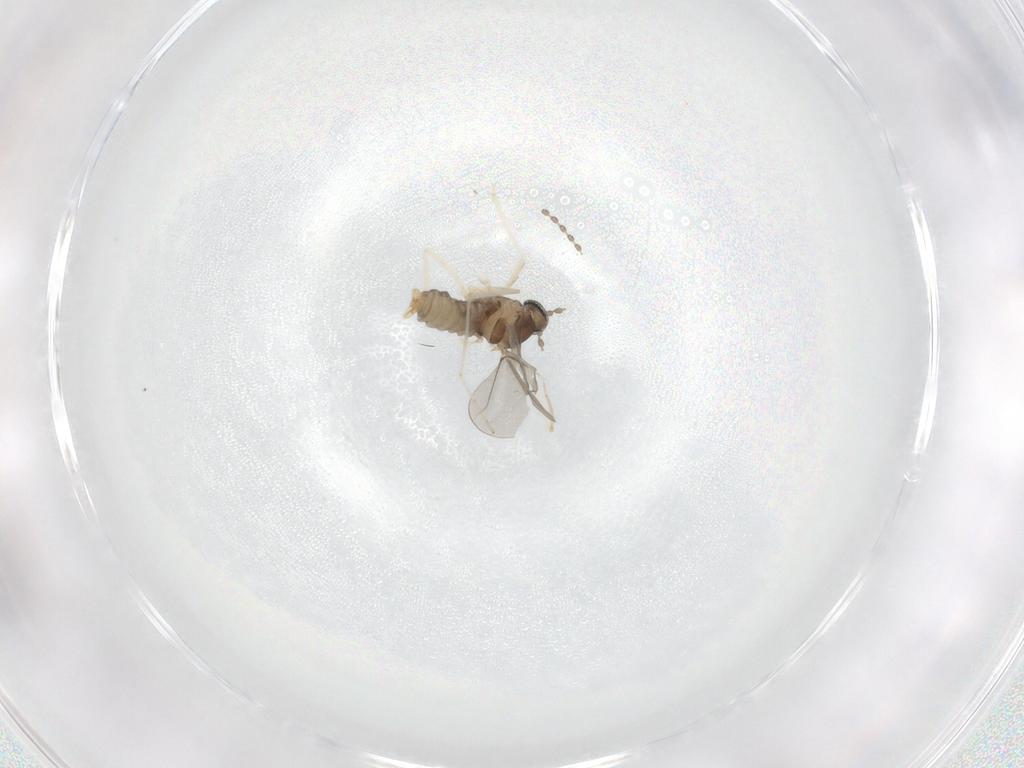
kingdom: Animalia
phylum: Arthropoda
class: Insecta
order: Diptera
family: Cecidomyiidae
